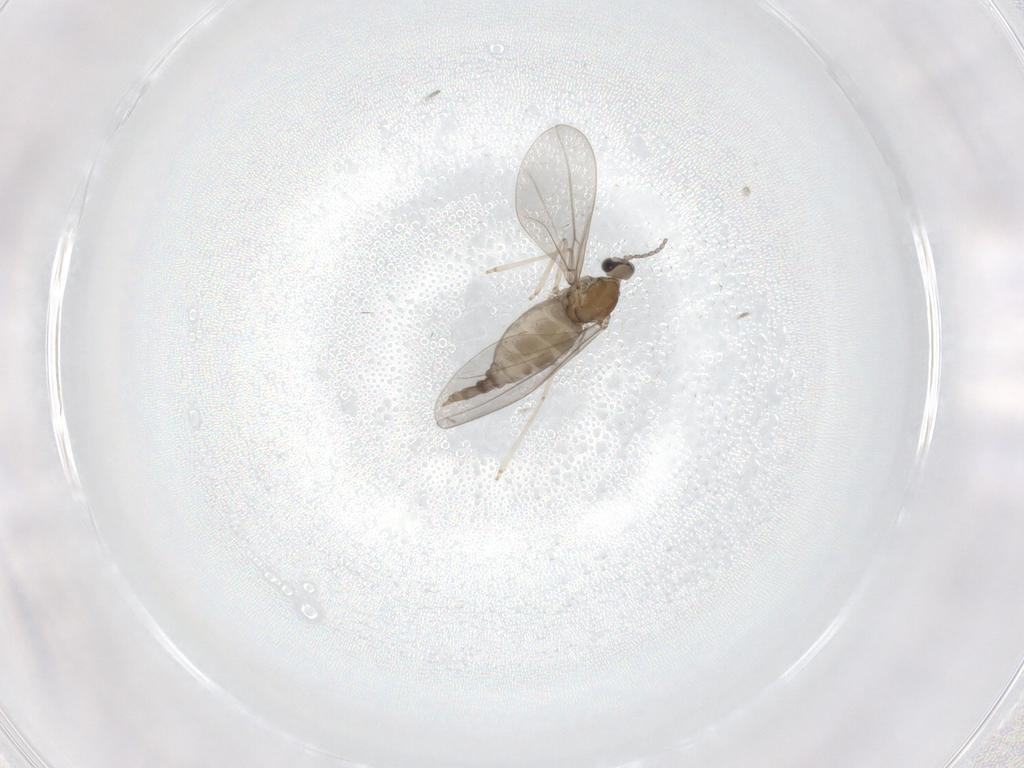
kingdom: Animalia
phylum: Arthropoda
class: Insecta
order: Diptera
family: Cecidomyiidae
